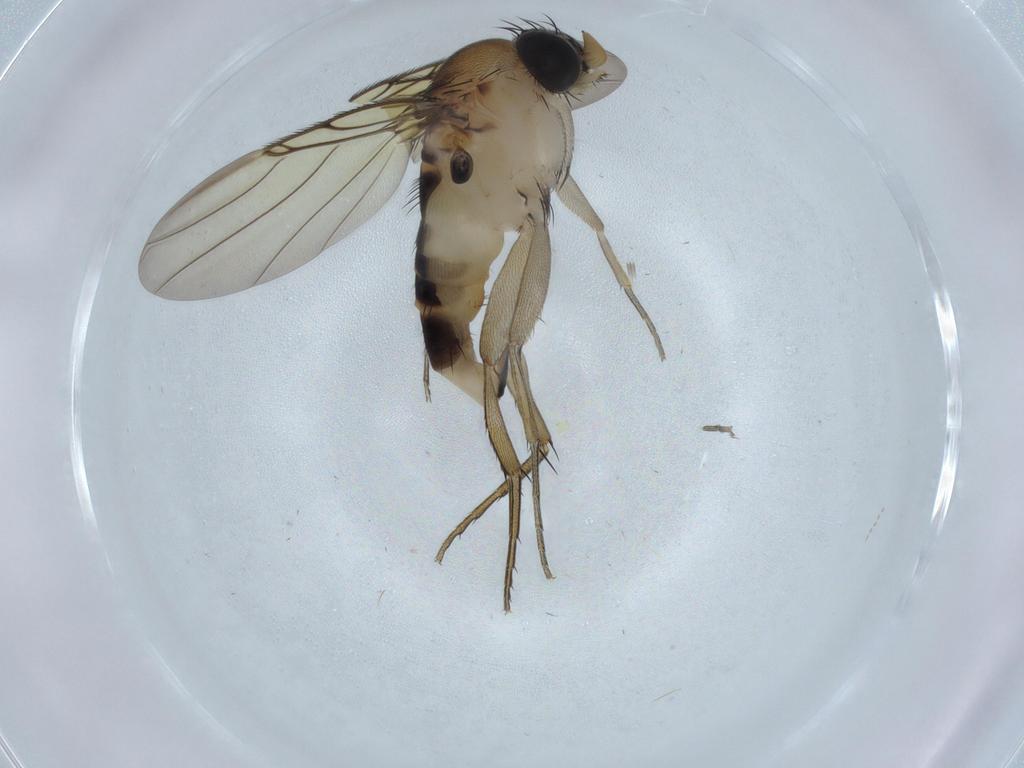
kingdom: Animalia
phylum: Arthropoda
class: Insecta
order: Diptera
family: Phoridae
